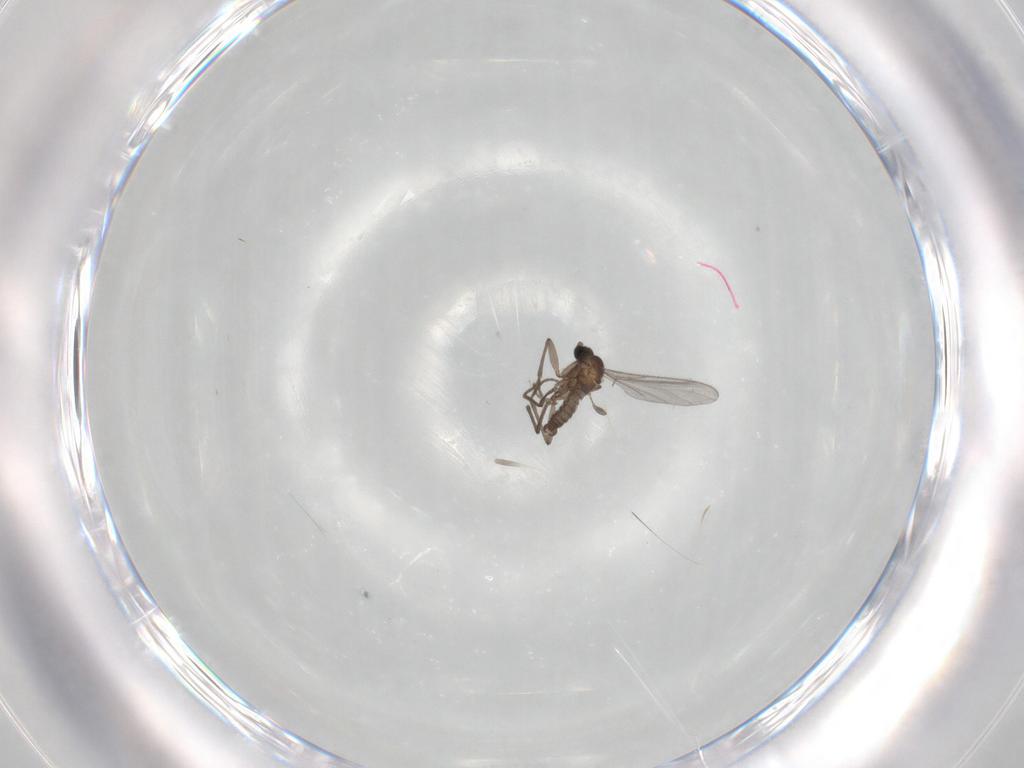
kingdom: Animalia
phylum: Arthropoda
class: Insecta
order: Diptera
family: Sciaridae
